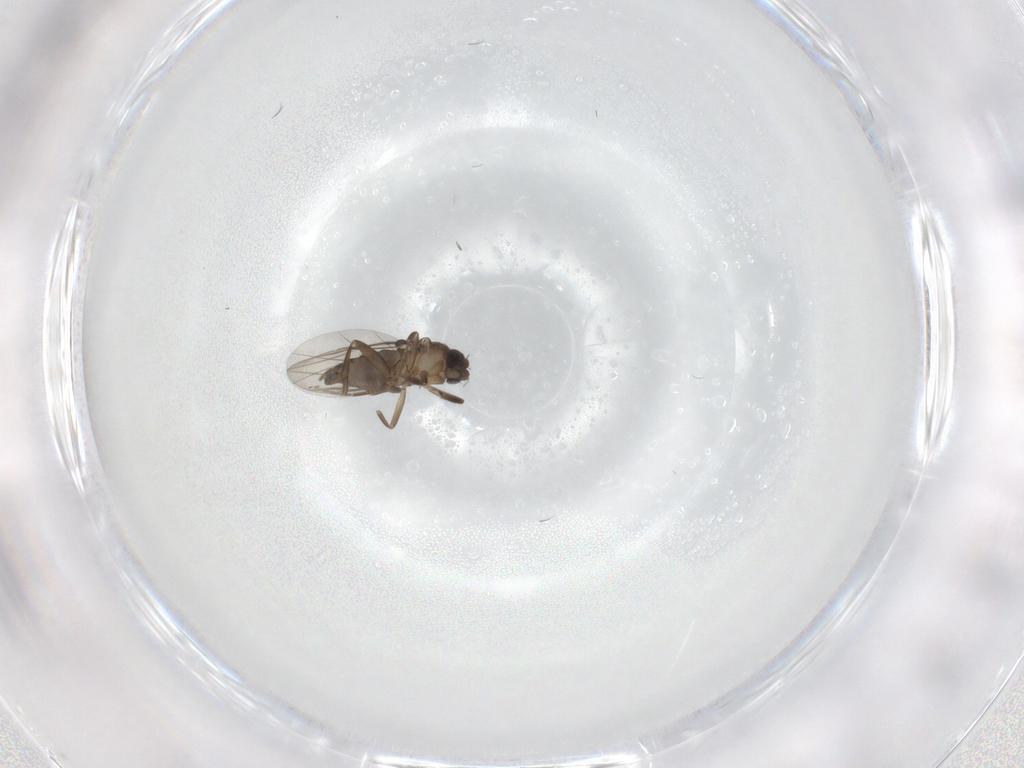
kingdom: Animalia
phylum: Arthropoda
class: Insecta
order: Diptera
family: Phoridae
